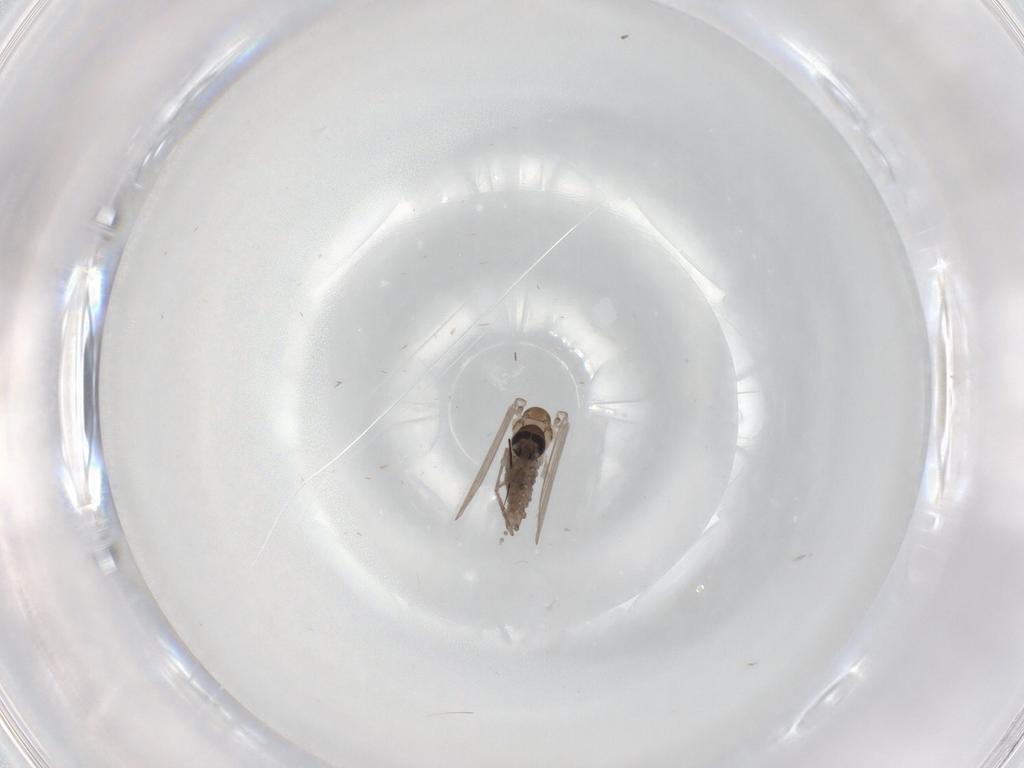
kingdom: Animalia
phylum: Arthropoda
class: Insecta
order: Diptera
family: Psychodidae
